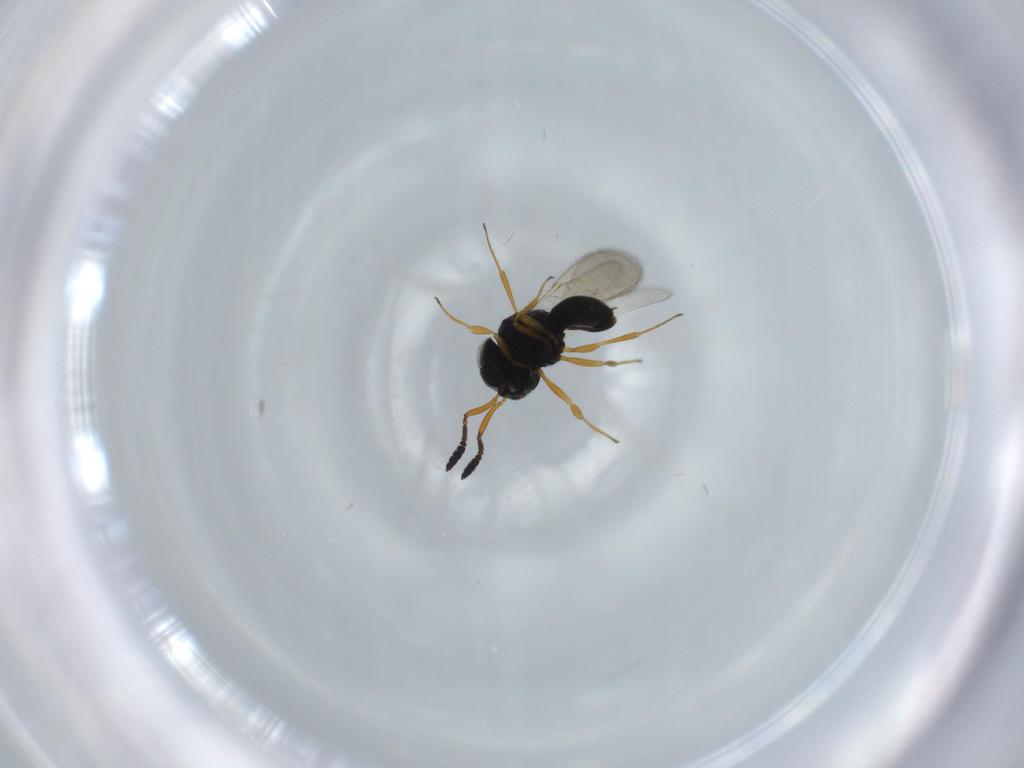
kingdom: Animalia
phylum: Arthropoda
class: Insecta
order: Hymenoptera
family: Scelionidae
